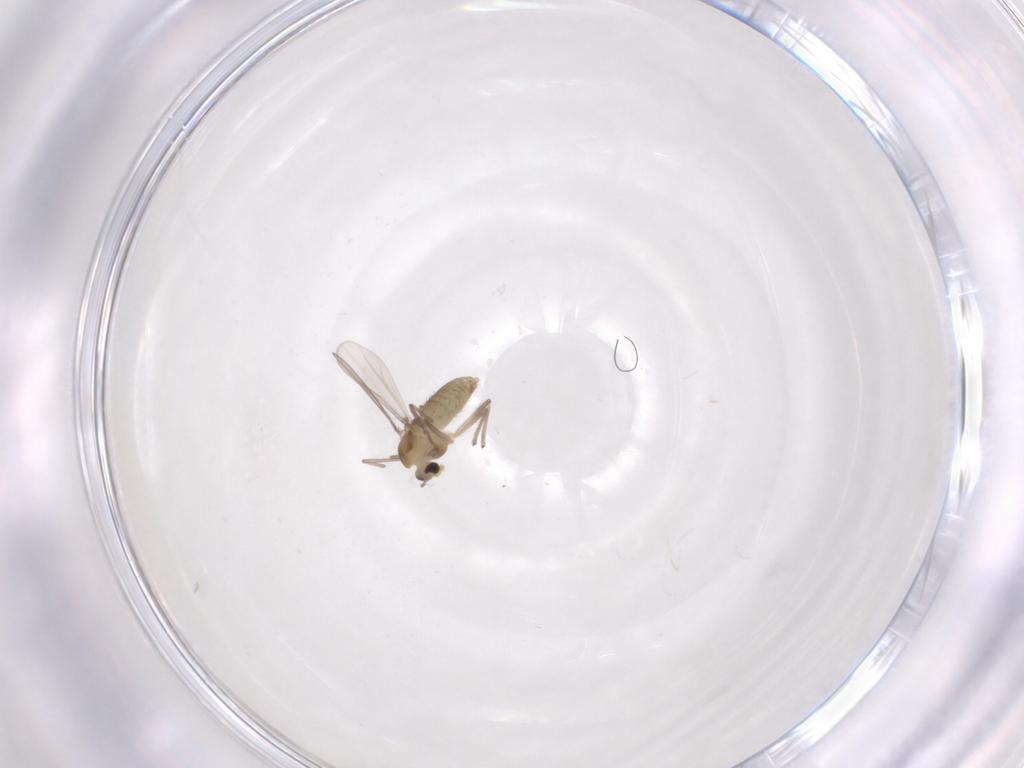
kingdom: Animalia
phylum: Arthropoda
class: Insecta
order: Diptera
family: Chironomidae
